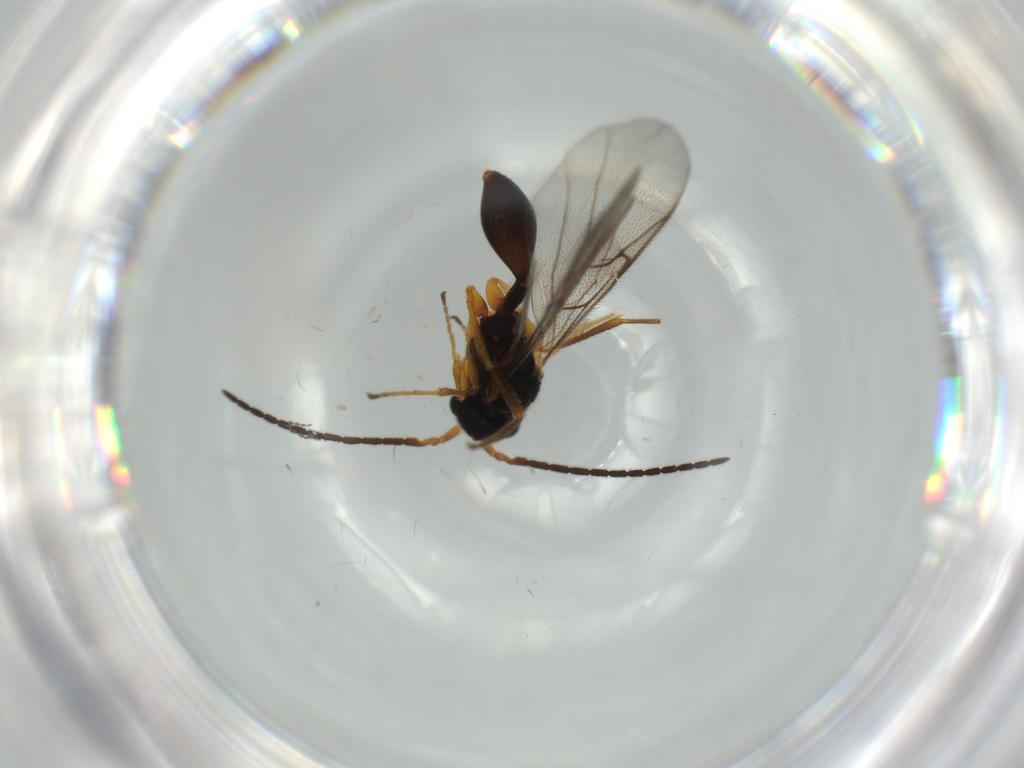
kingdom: Animalia
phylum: Arthropoda
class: Insecta
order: Hymenoptera
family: Diapriidae
